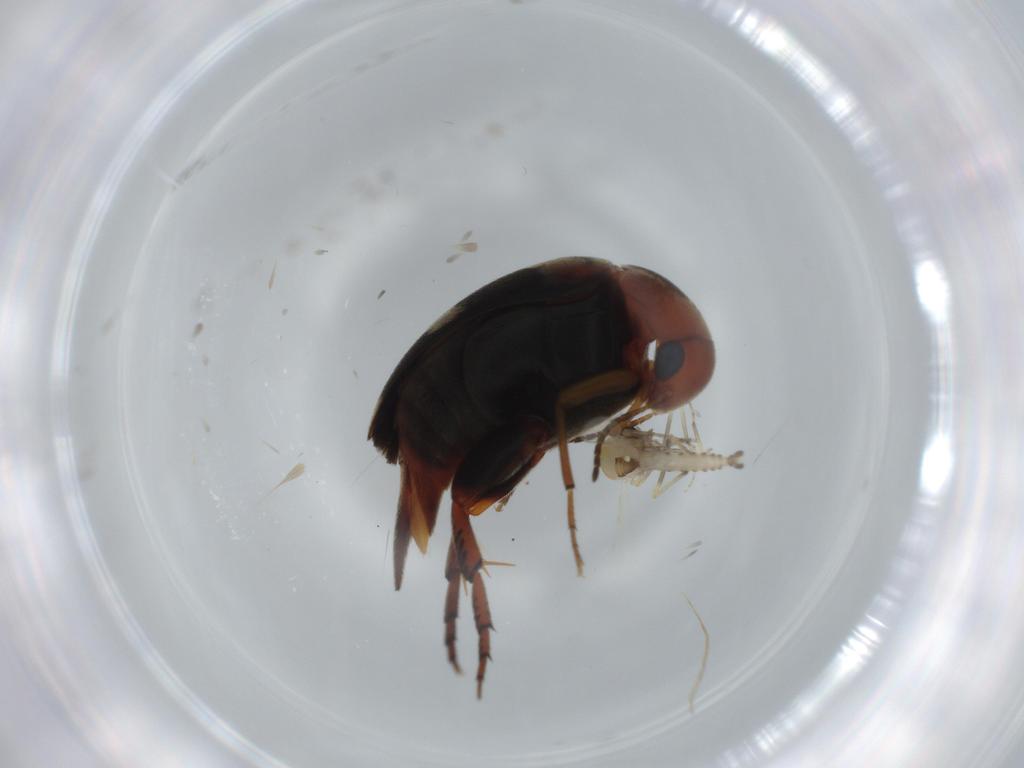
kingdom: Animalia
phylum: Arthropoda
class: Insecta
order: Coleoptera
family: Mordellidae
